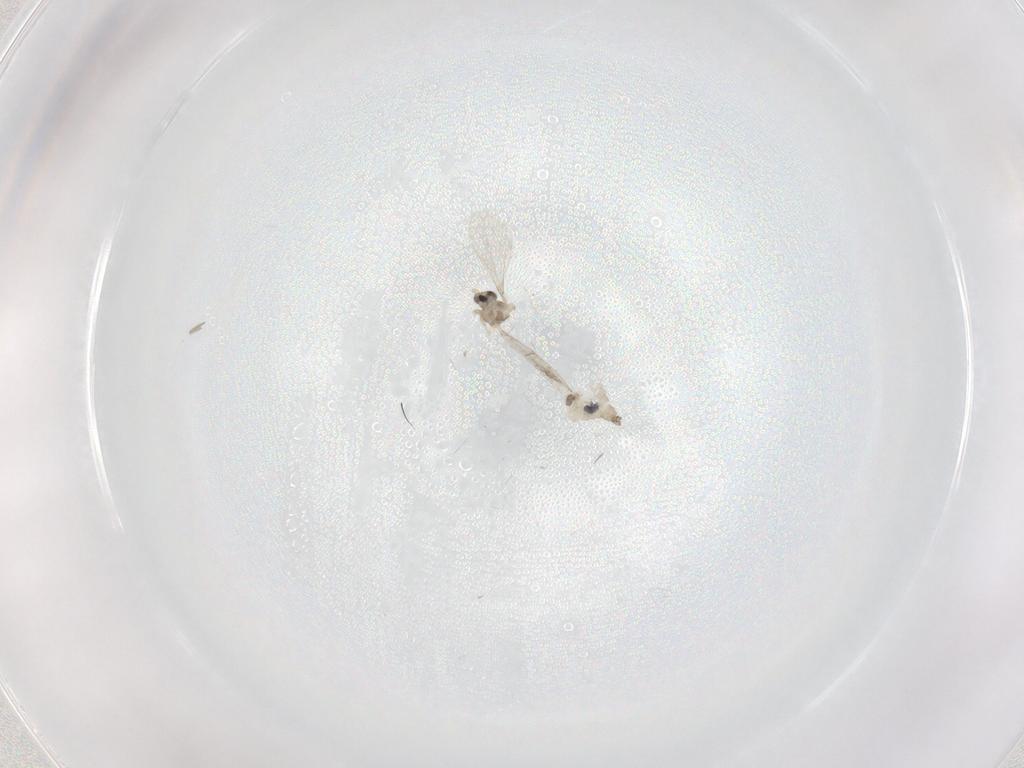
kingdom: Animalia
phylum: Arthropoda
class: Insecta
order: Diptera
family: Cecidomyiidae
